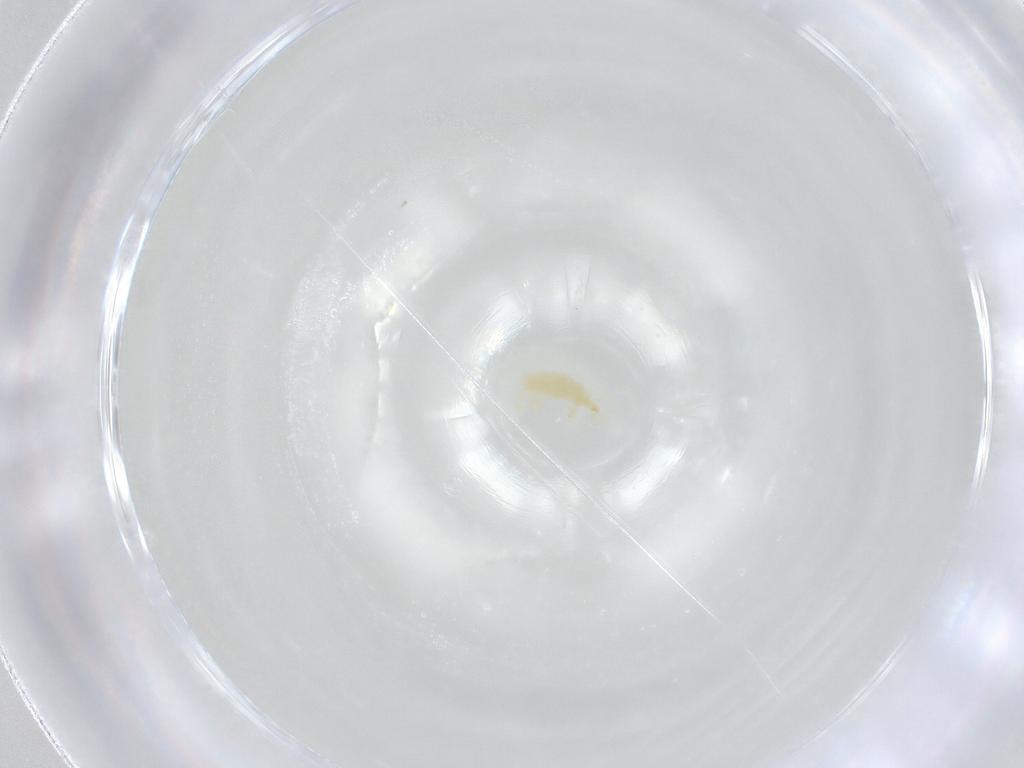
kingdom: Animalia
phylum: Arthropoda
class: Arachnida
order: Trombidiformes
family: Erythraeidae
